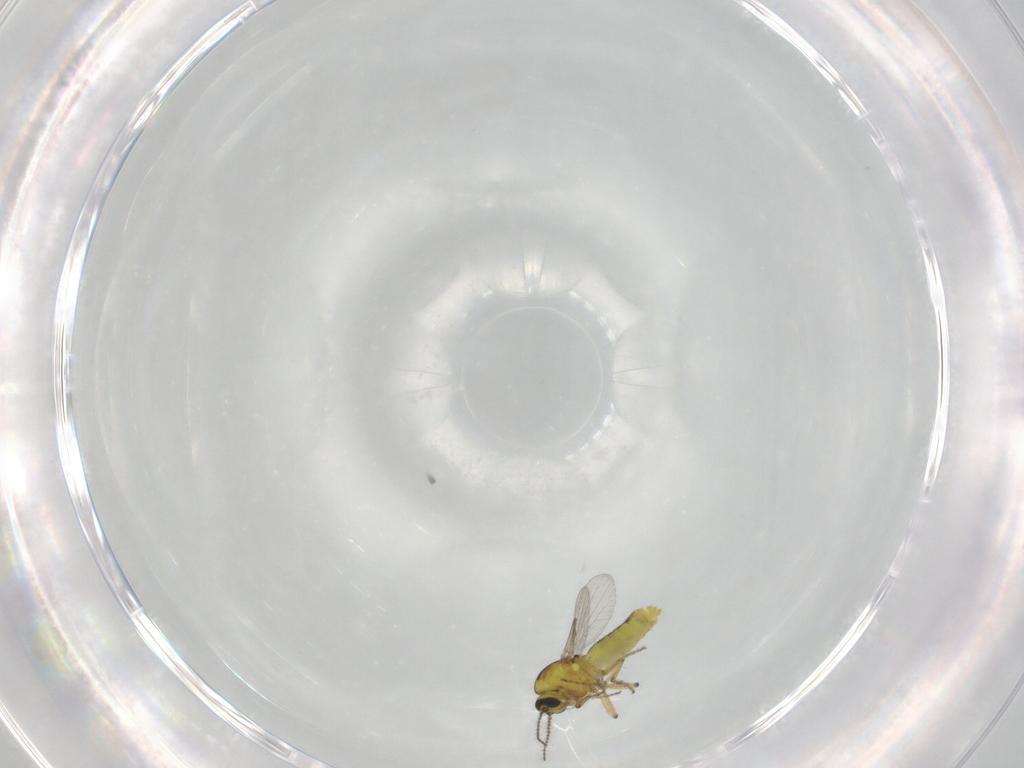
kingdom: Animalia
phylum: Arthropoda
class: Insecta
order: Diptera
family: Ceratopogonidae
